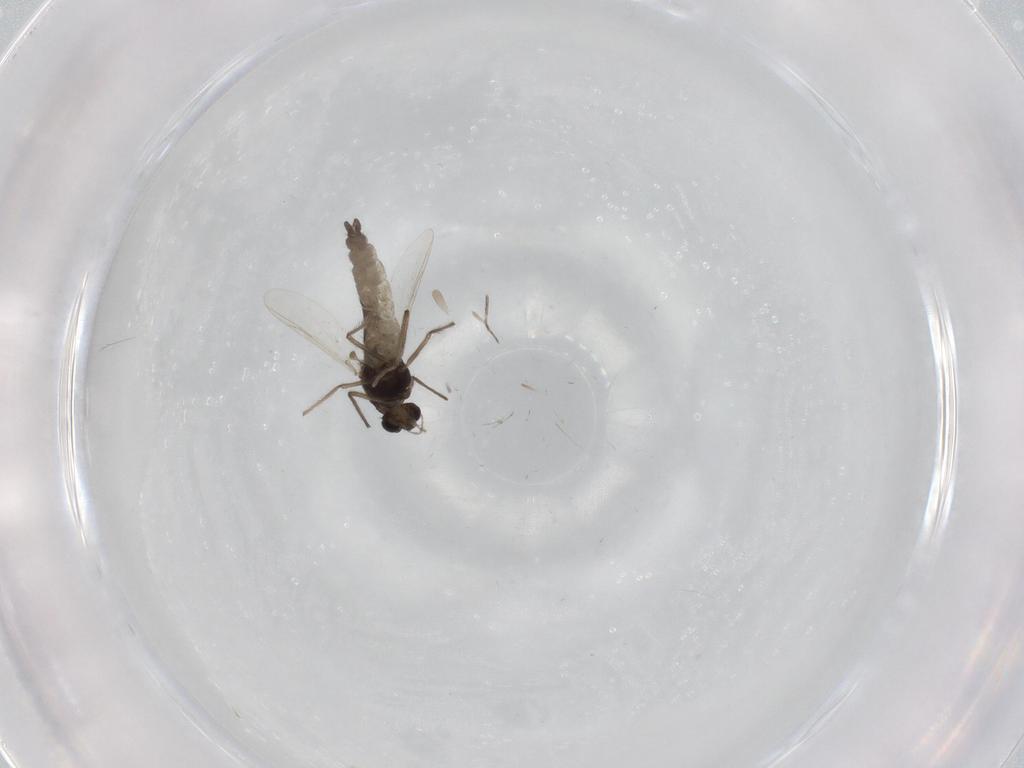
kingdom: Animalia
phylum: Arthropoda
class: Insecta
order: Diptera
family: Chironomidae
